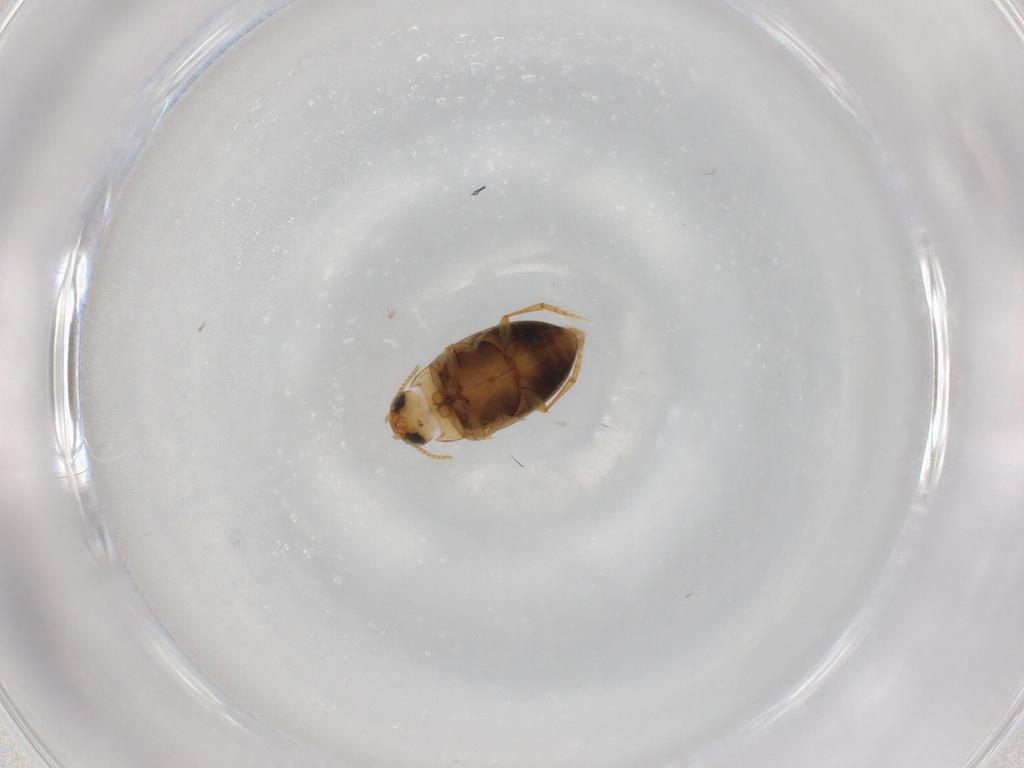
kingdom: Animalia
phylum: Arthropoda
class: Insecta
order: Coleoptera
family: Dytiscidae
